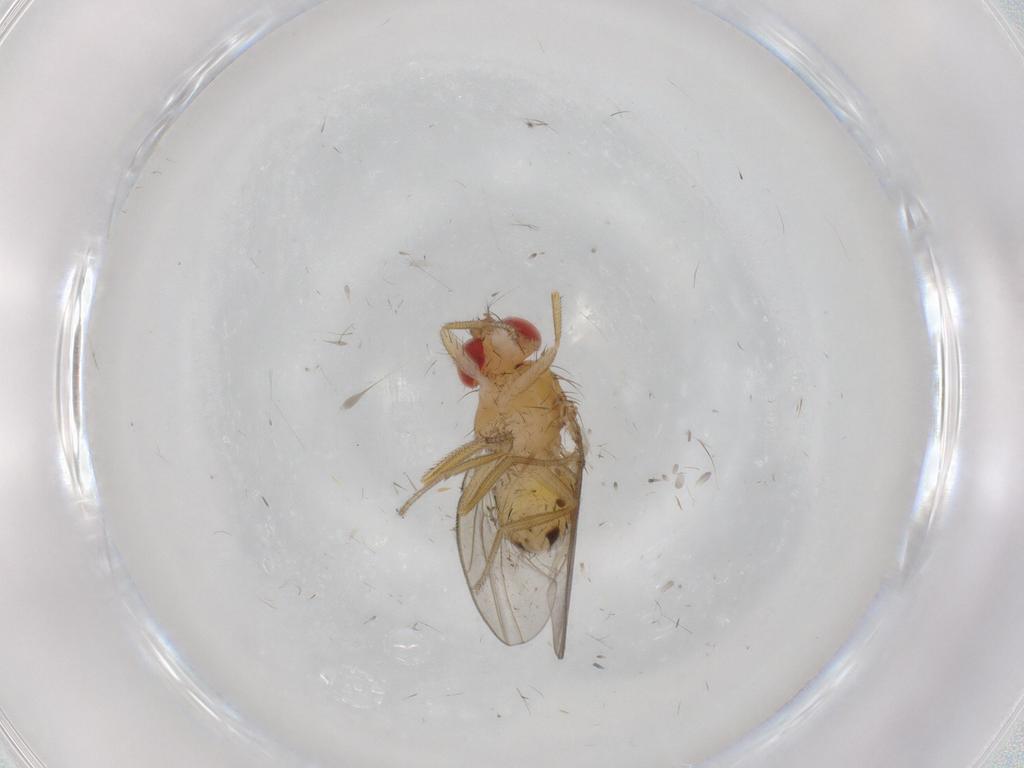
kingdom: Animalia
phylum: Arthropoda
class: Insecta
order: Diptera
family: Drosophilidae
